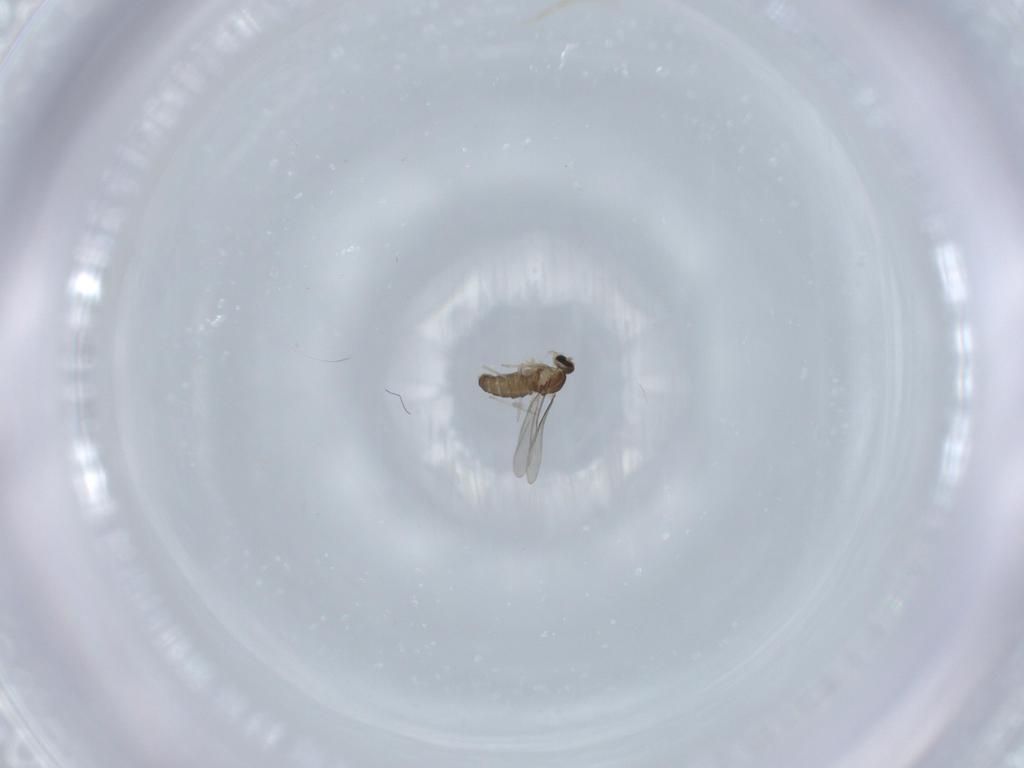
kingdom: Animalia
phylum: Arthropoda
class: Insecta
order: Diptera
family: Cecidomyiidae
